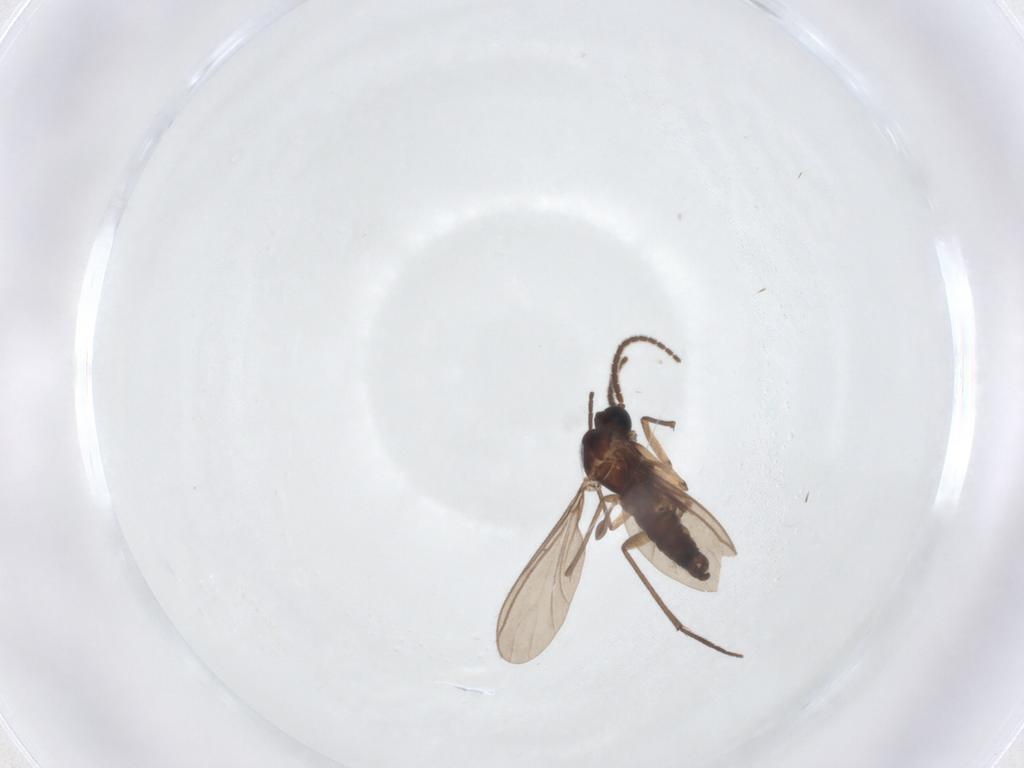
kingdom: Animalia
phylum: Arthropoda
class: Insecta
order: Diptera
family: Sciaridae
